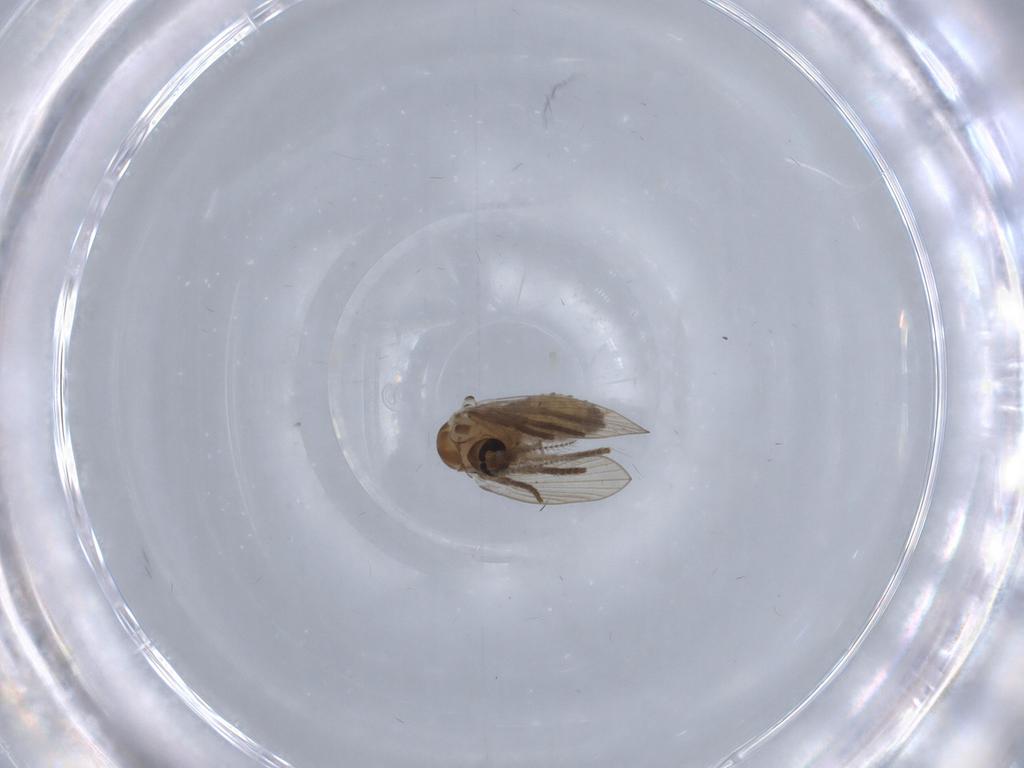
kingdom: Animalia
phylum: Arthropoda
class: Insecta
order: Diptera
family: Psychodidae
